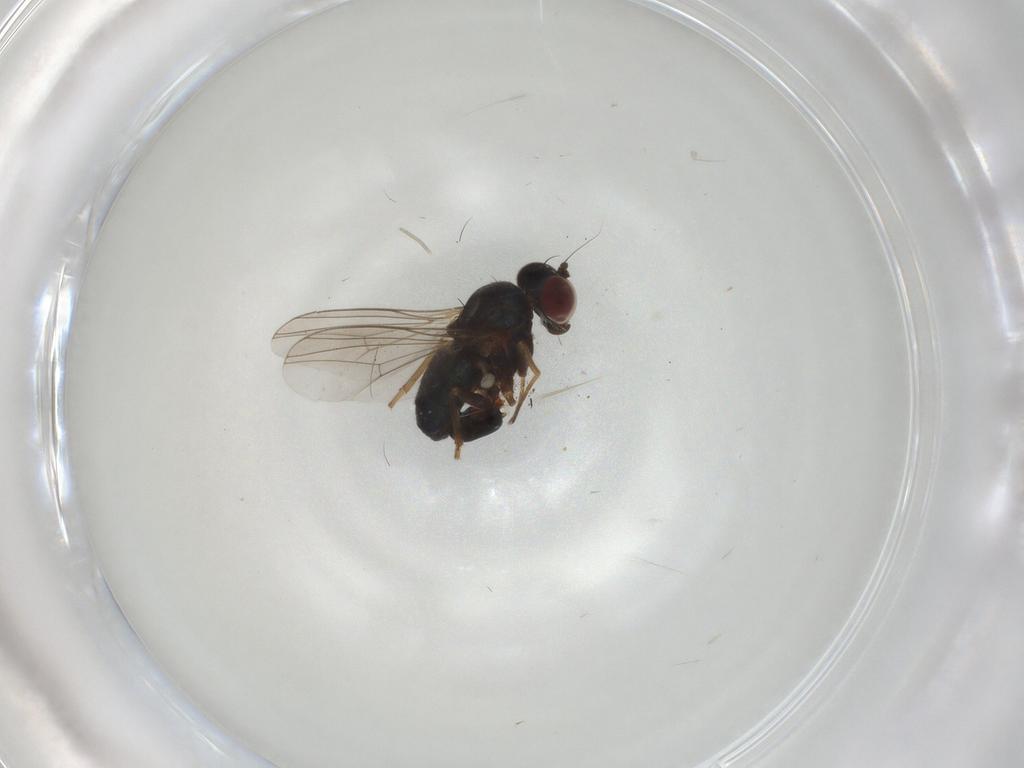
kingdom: Animalia
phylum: Arthropoda
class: Insecta
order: Diptera
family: Dolichopodidae
